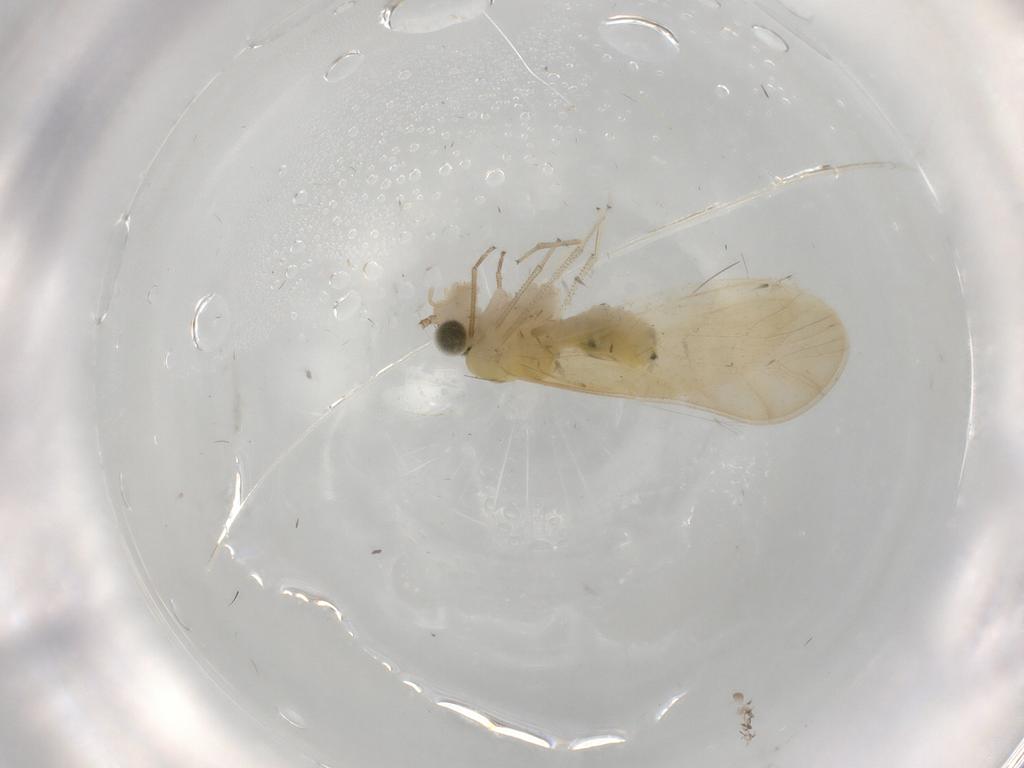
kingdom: Animalia
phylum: Arthropoda
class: Insecta
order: Psocodea
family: Caeciliusidae
